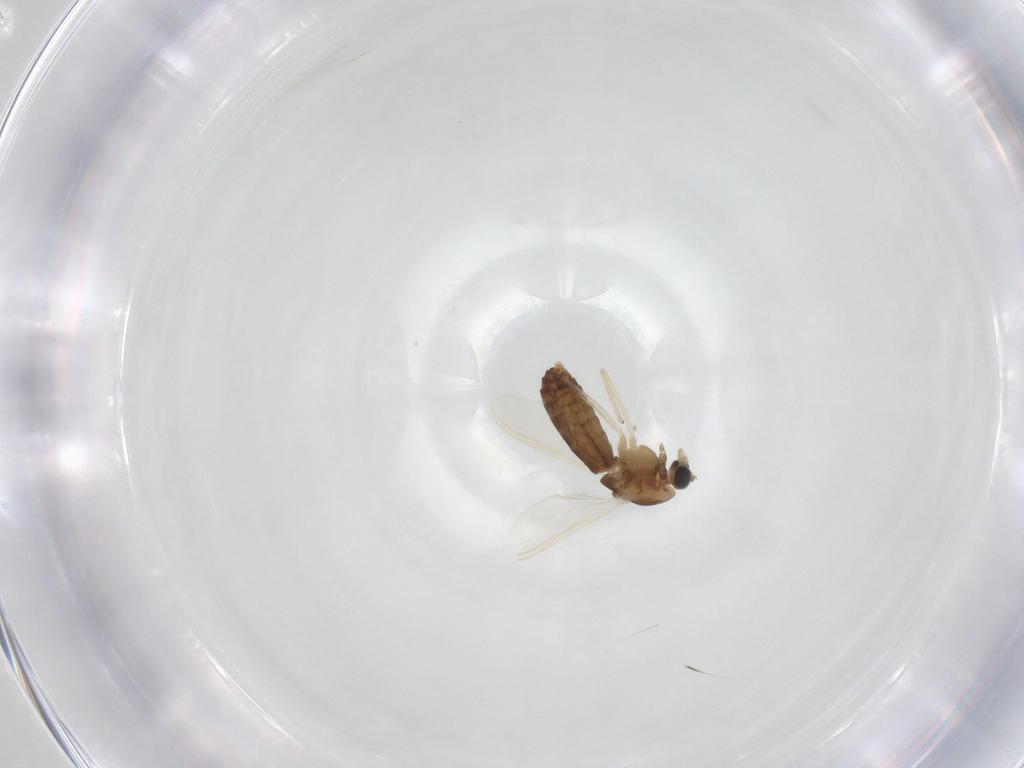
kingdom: Animalia
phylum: Arthropoda
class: Insecta
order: Diptera
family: Chironomidae
